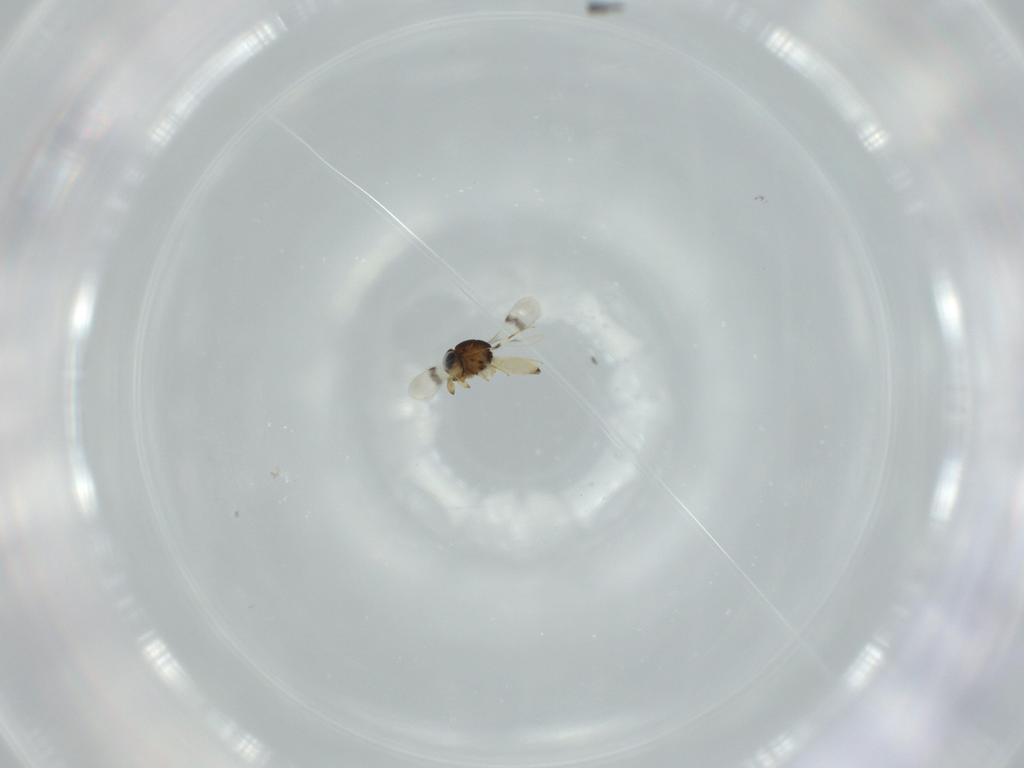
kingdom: Animalia
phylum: Arthropoda
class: Insecta
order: Hymenoptera
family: Scelionidae
